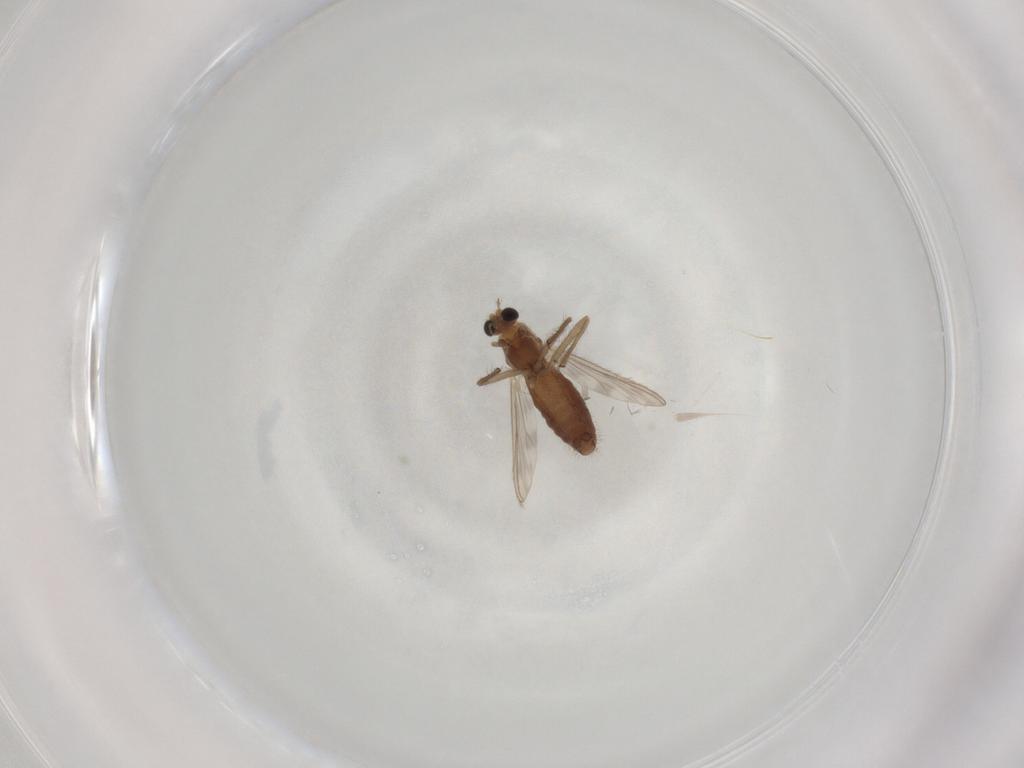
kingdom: Animalia
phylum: Arthropoda
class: Insecta
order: Diptera
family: Chironomidae
